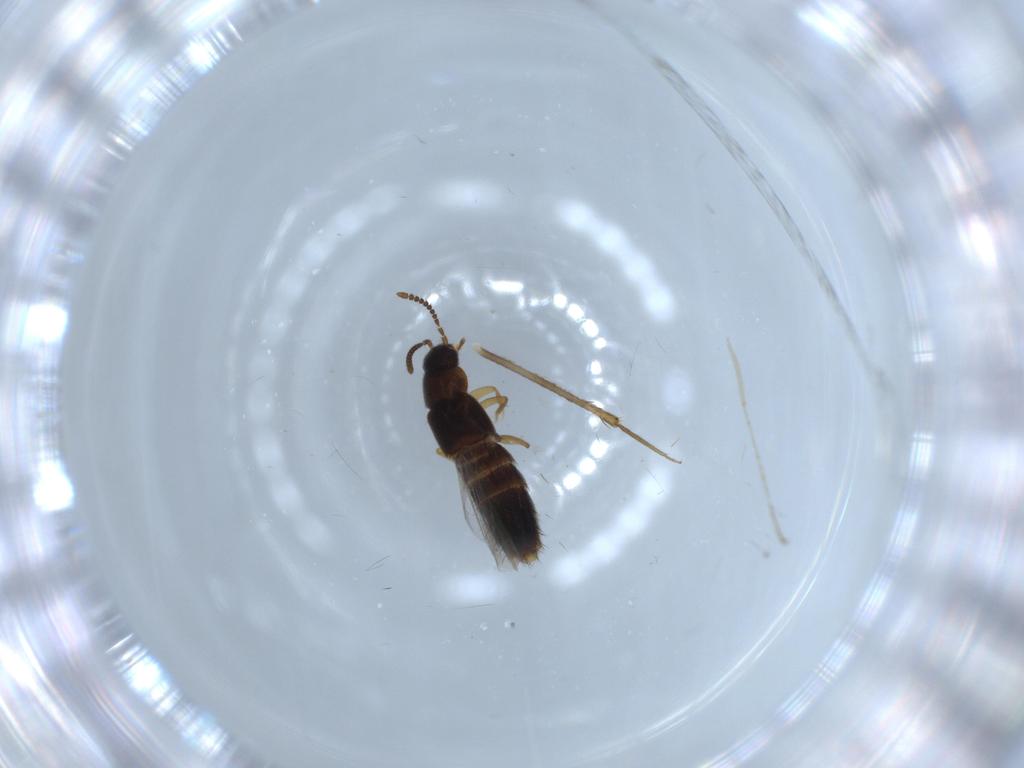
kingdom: Animalia
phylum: Arthropoda
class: Insecta
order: Coleoptera
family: Staphylinidae
